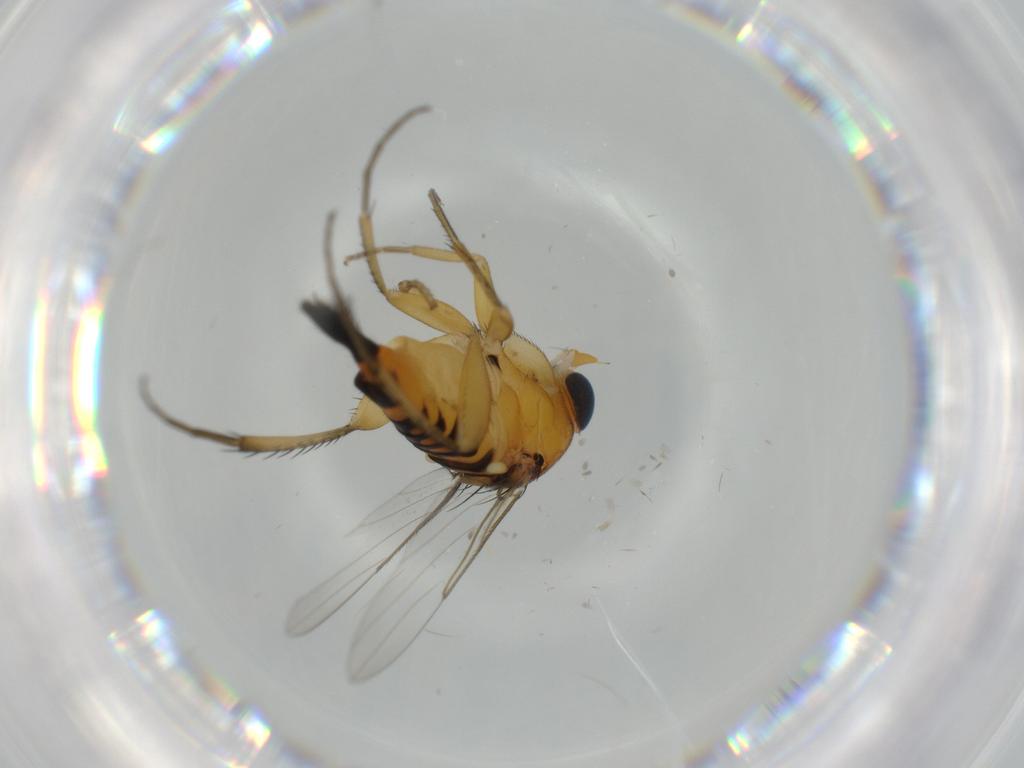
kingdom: Animalia
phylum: Arthropoda
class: Insecta
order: Diptera
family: Phoridae
